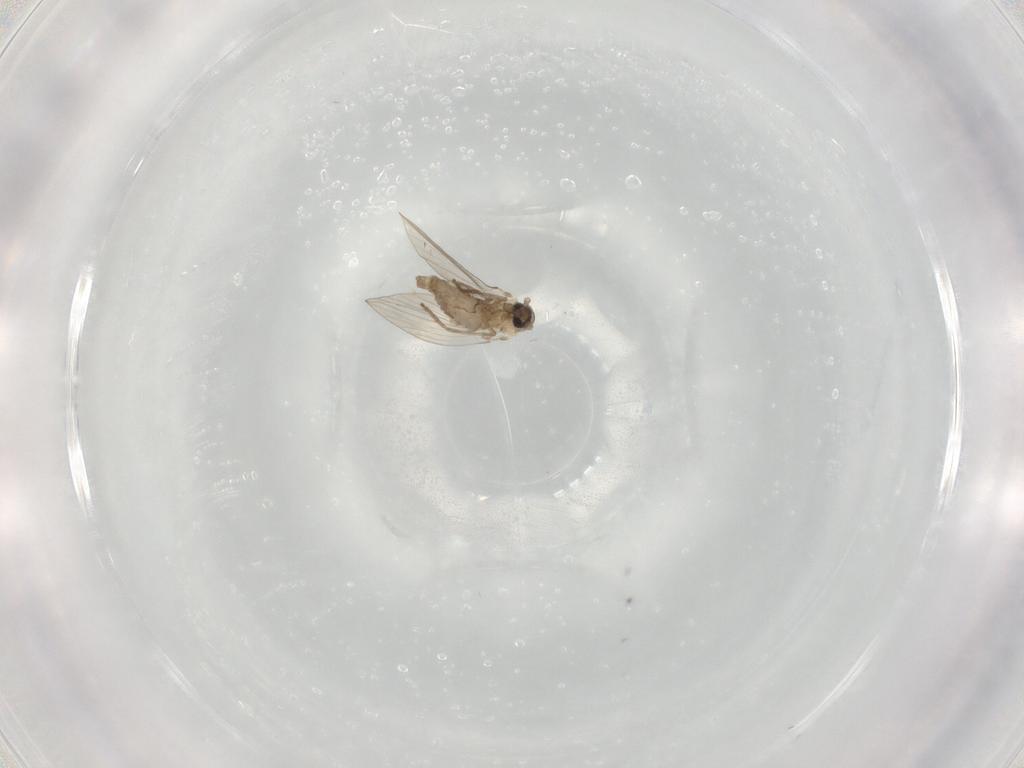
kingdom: Animalia
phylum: Arthropoda
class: Insecta
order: Diptera
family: Psychodidae
